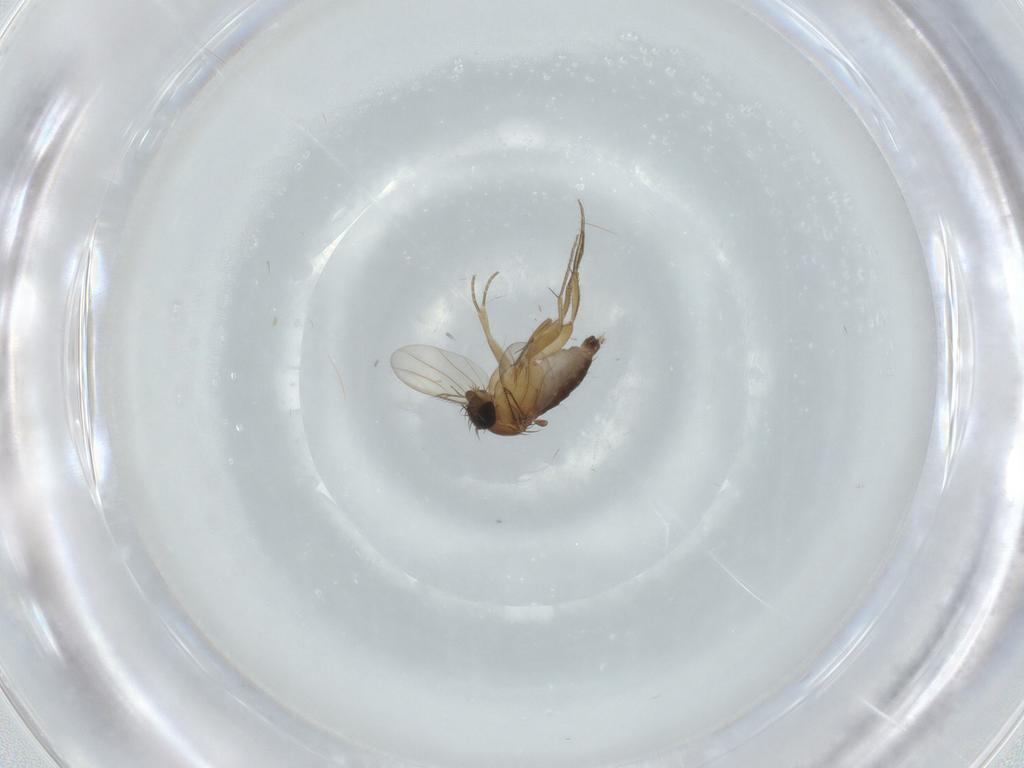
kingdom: Animalia
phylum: Arthropoda
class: Insecta
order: Diptera
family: Phoridae
